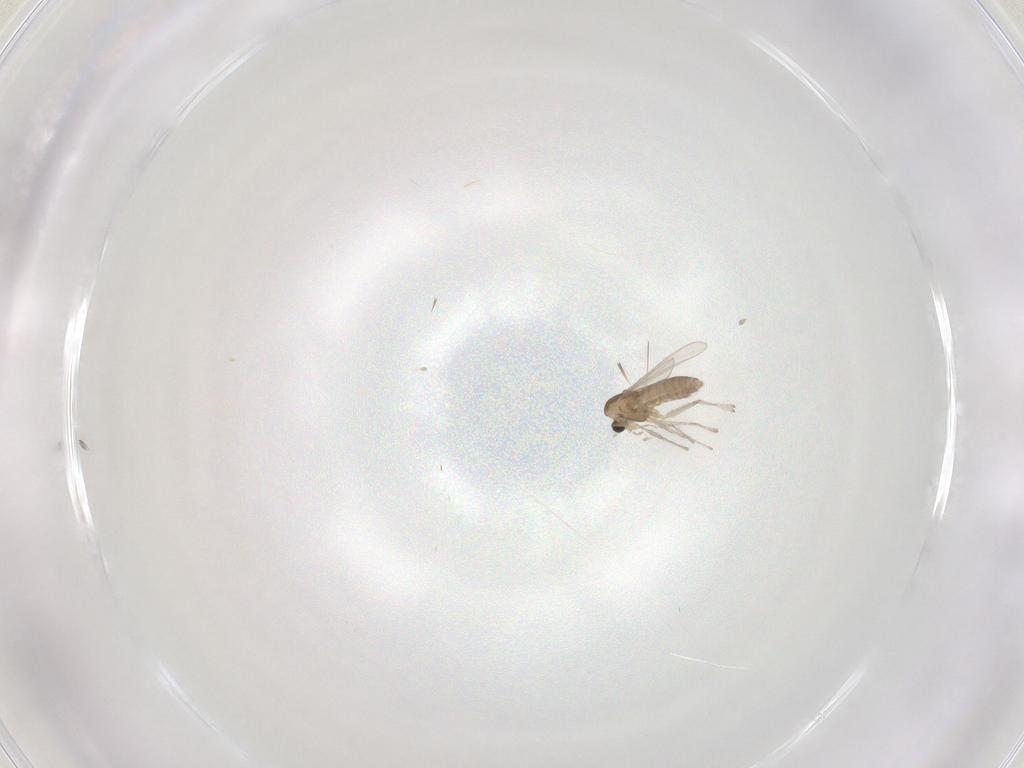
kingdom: Animalia
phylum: Arthropoda
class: Insecta
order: Diptera
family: Chironomidae
